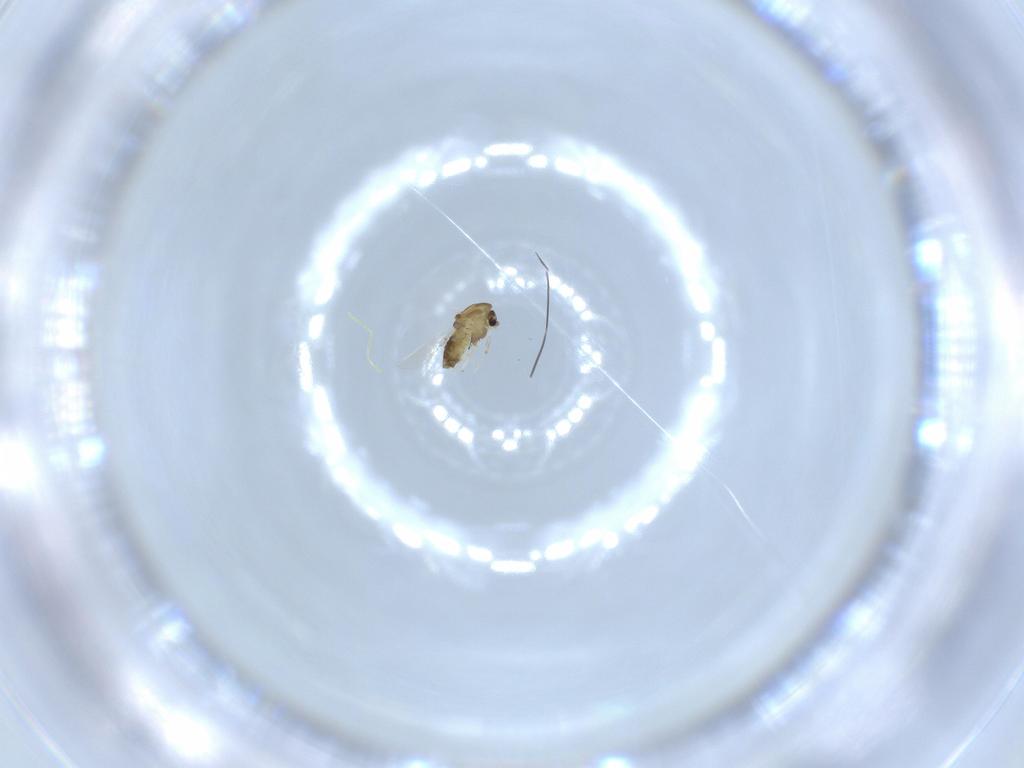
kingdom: Animalia
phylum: Arthropoda
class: Insecta
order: Diptera
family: Chironomidae
